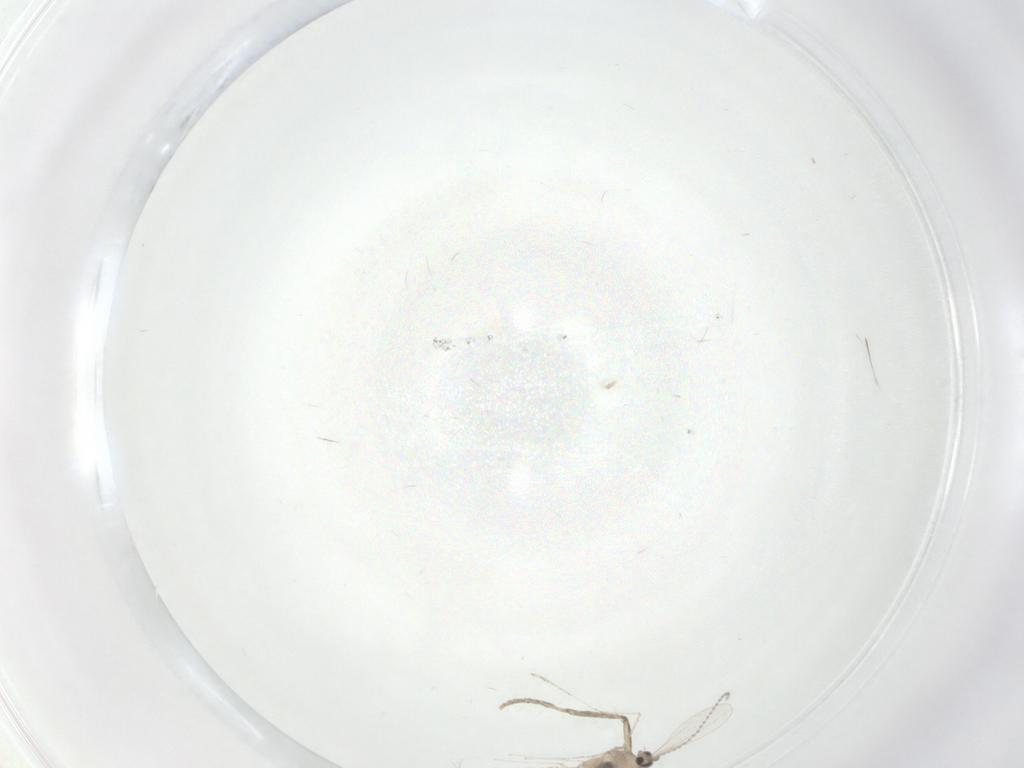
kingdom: Animalia
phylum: Arthropoda
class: Insecta
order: Diptera
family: Cecidomyiidae
